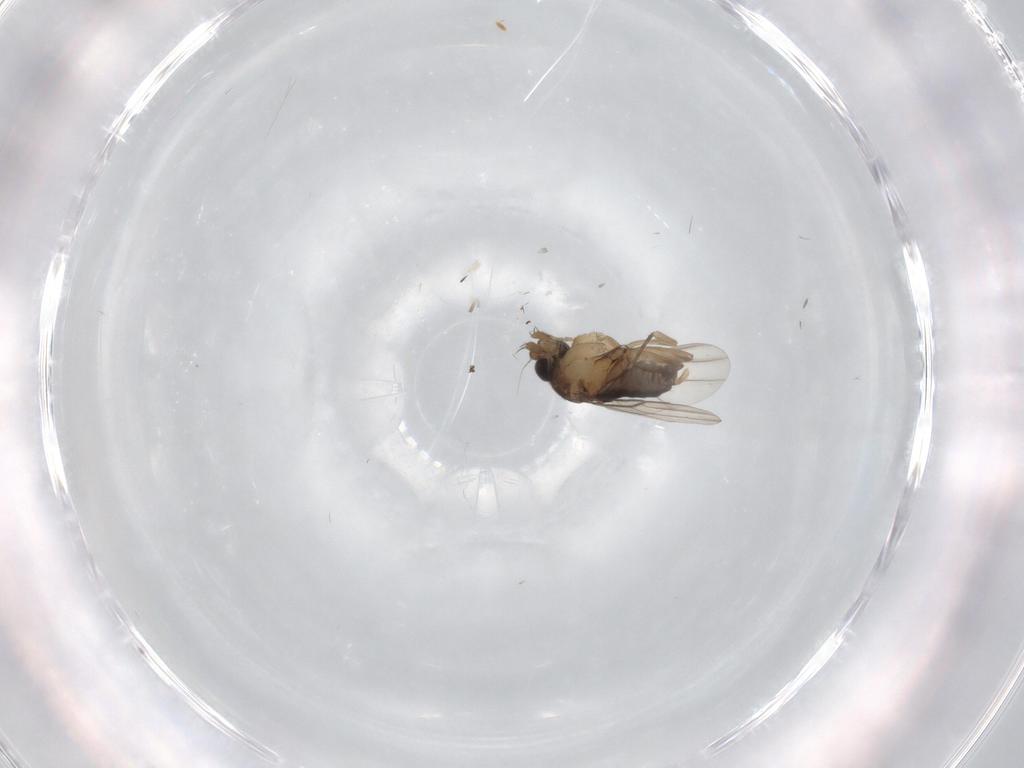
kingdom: Animalia
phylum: Arthropoda
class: Insecta
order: Diptera
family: Phoridae
